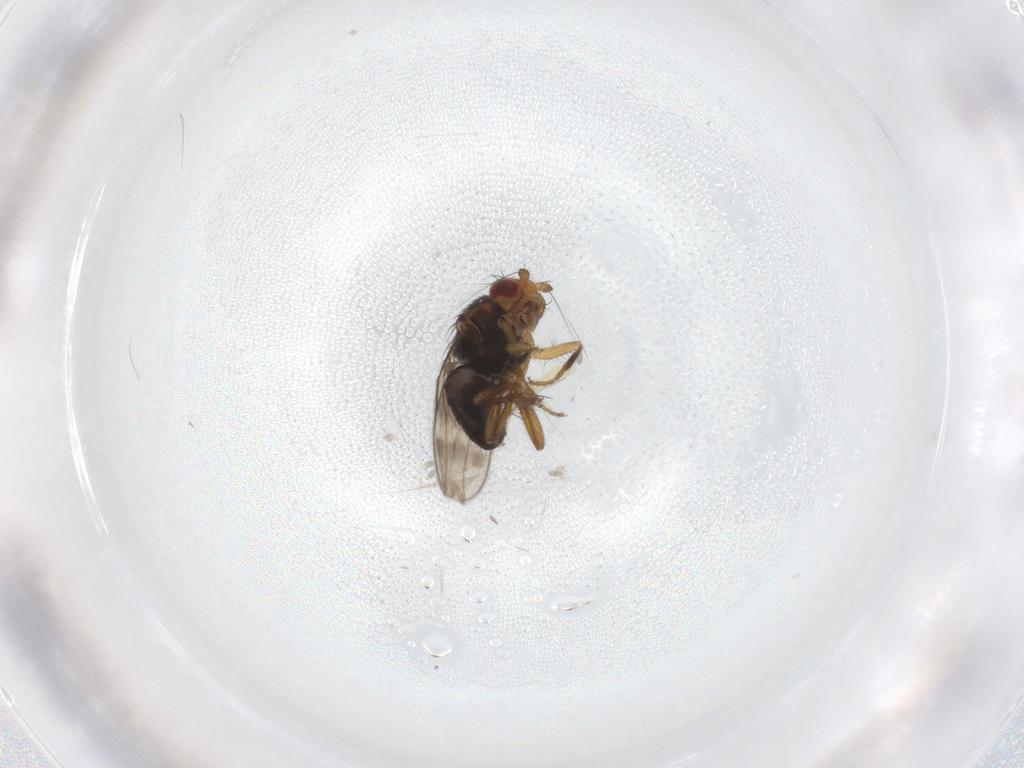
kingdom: Animalia
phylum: Arthropoda
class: Insecta
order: Diptera
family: Sphaeroceridae
